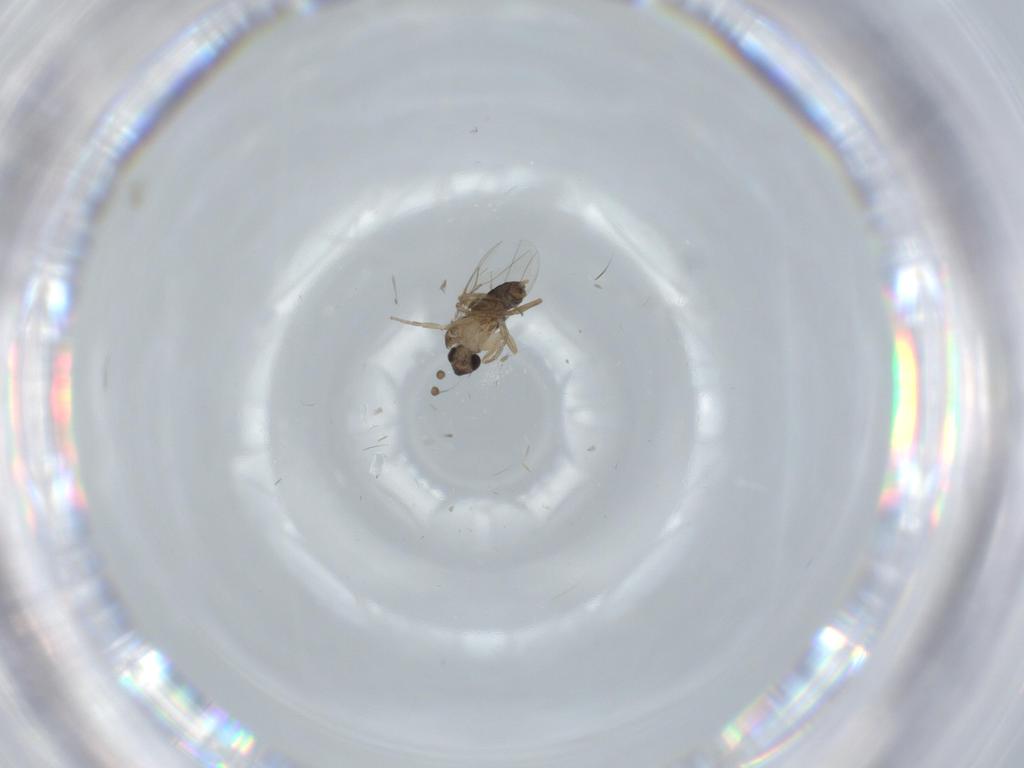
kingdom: Animalia
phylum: Arthropoda
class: Insecta
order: Diptera
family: Phoridae
